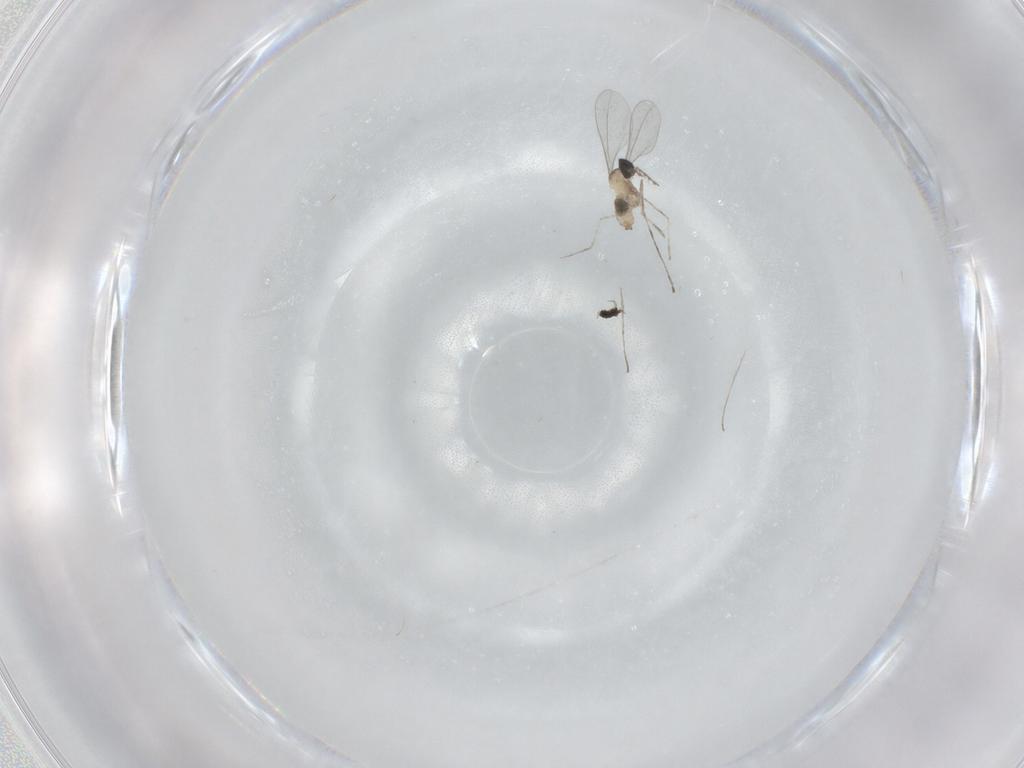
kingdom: Animalia
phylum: Arthropoda
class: Insecta
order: Diptera
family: Cecidomyiidae
